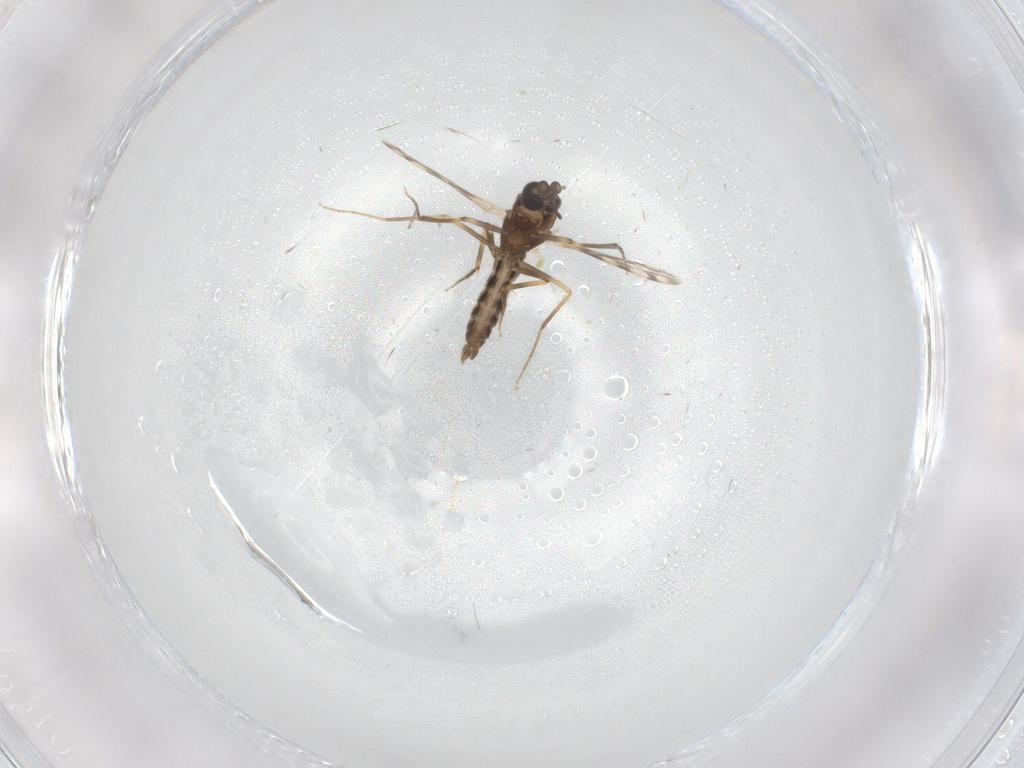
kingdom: Animalia
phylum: Arthropoda
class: Insecta
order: Diptera
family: Ceratopogonidae
